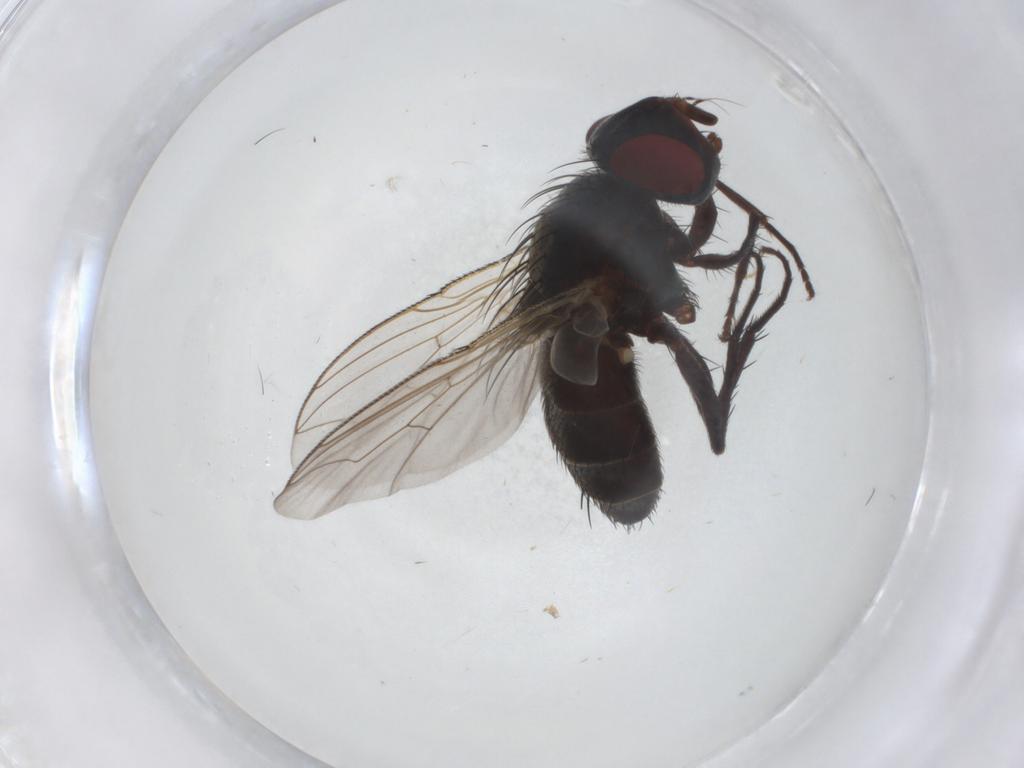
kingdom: Animalia
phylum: Arthropoda
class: Insecta
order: Diptera
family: Sarcophagidae
